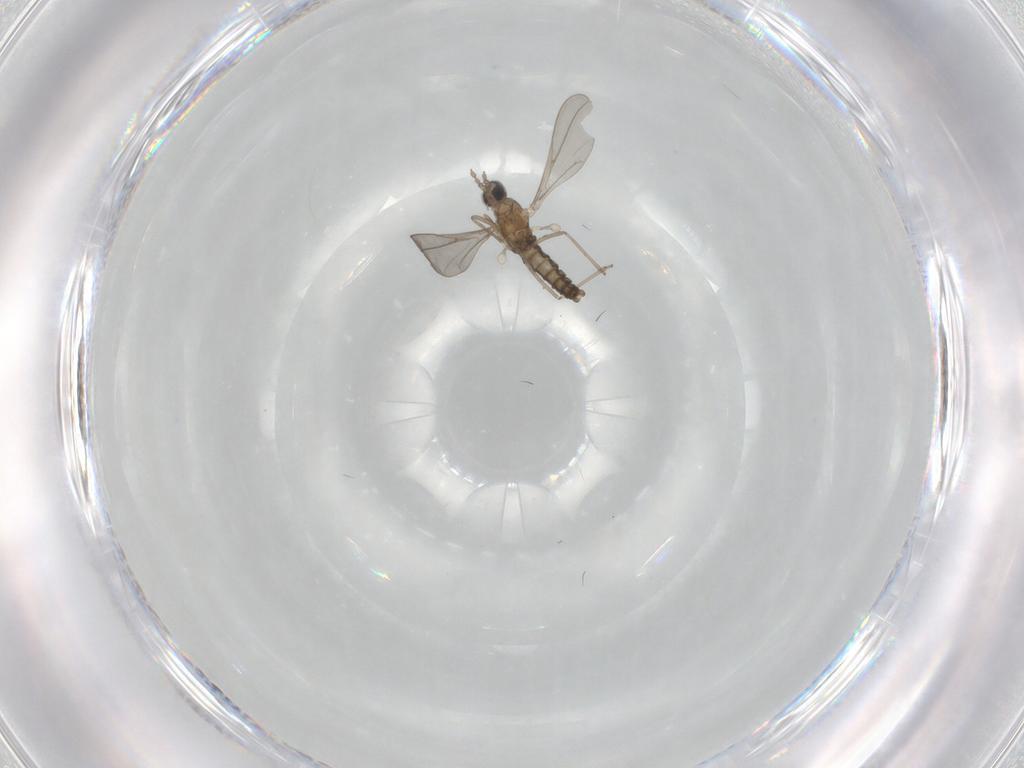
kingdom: Animalia
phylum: Arthropoda
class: Insecta
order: Diptera
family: Cecidomyiidae
